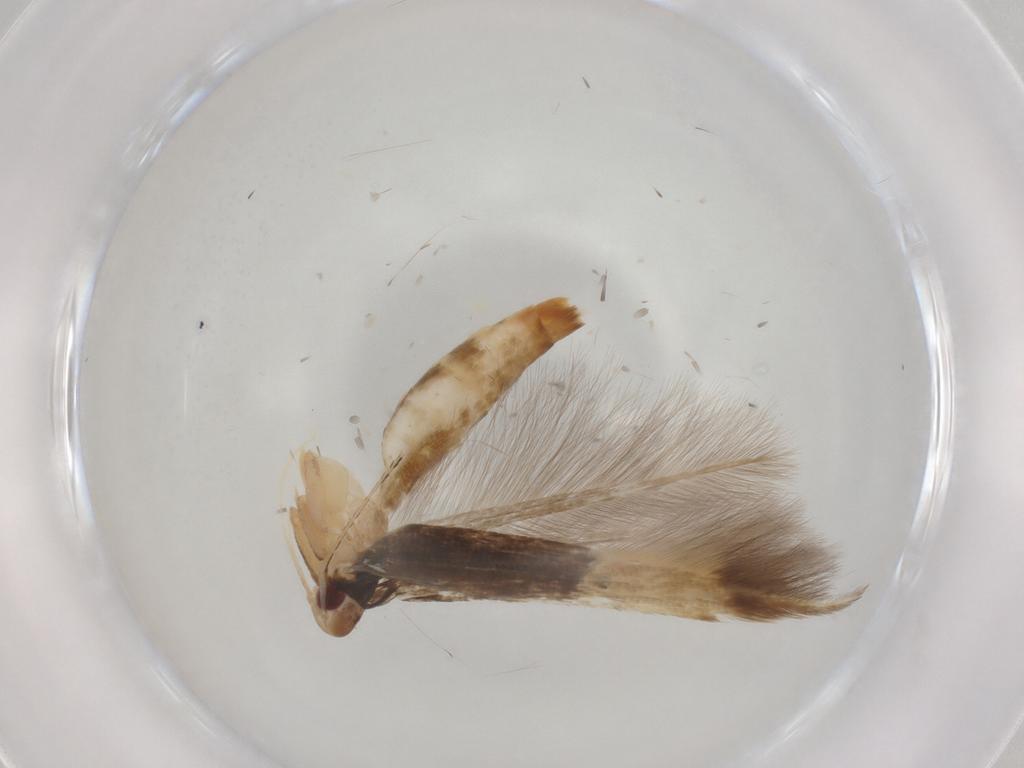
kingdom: Animalia
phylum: Arthropoda
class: Insecta
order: Lepidoptera
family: Cosmopterigidae
